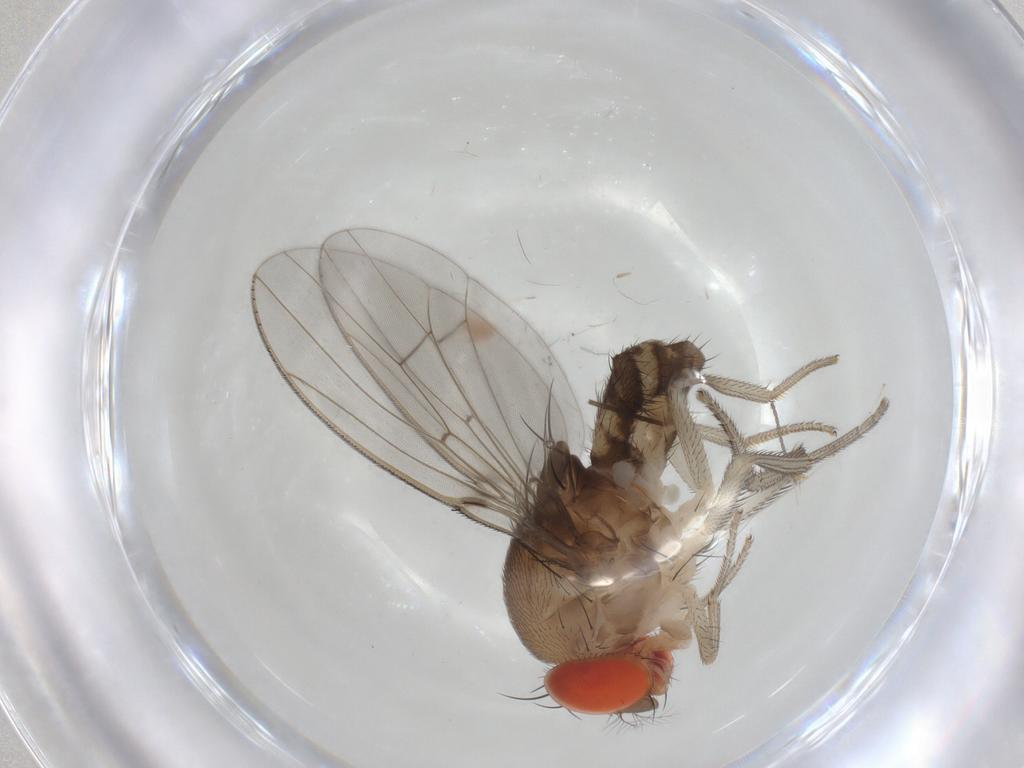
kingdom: Animalia
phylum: Arthropoda
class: Insecta
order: Diptera
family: Drosophilidae
